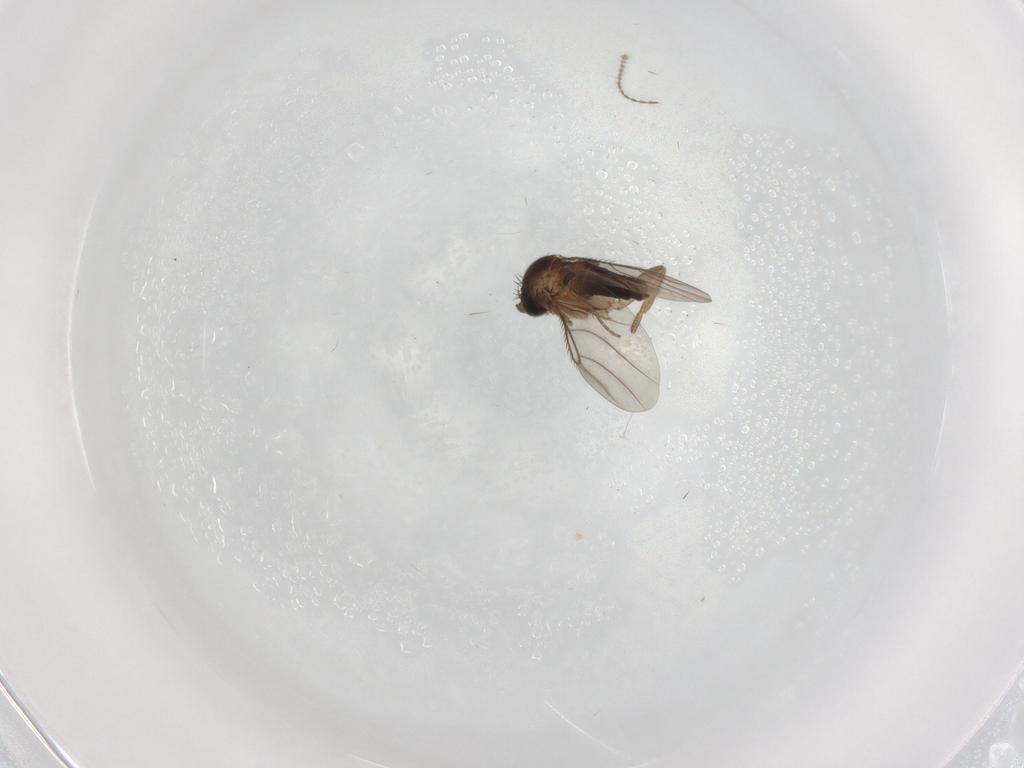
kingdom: Animalia
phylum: Arthropoda
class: Insecta
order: Diptera
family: Phoridae
